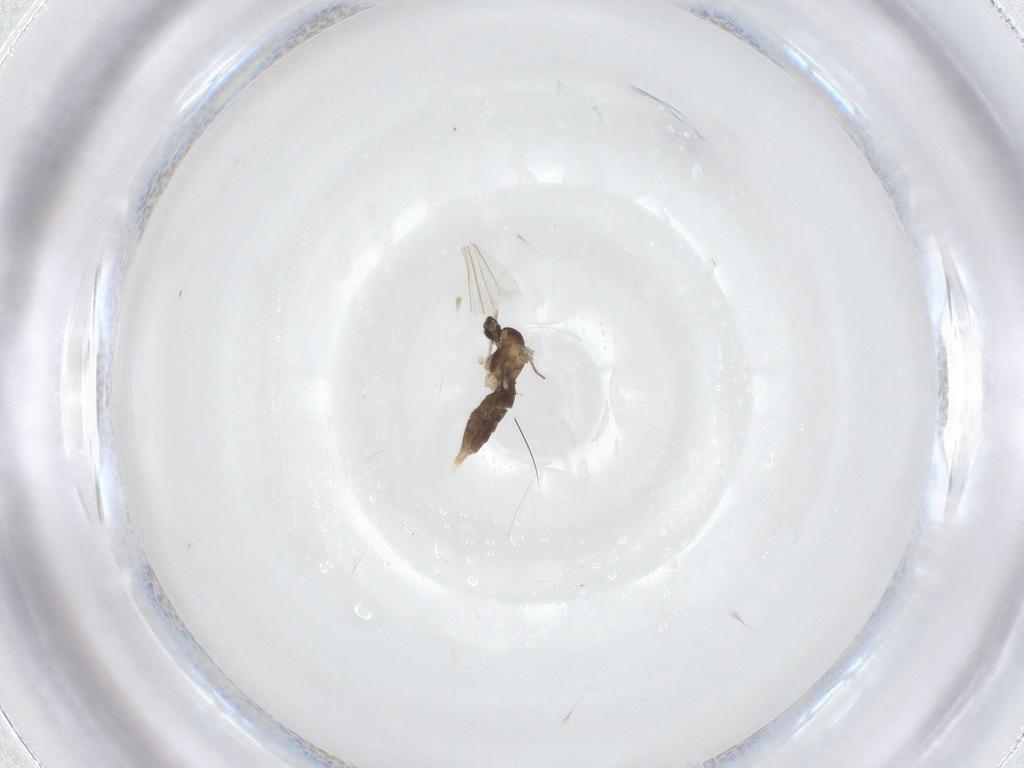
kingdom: Animalia
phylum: Arthropoda
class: Insecta
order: Diptera
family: Cecidomyiidae
